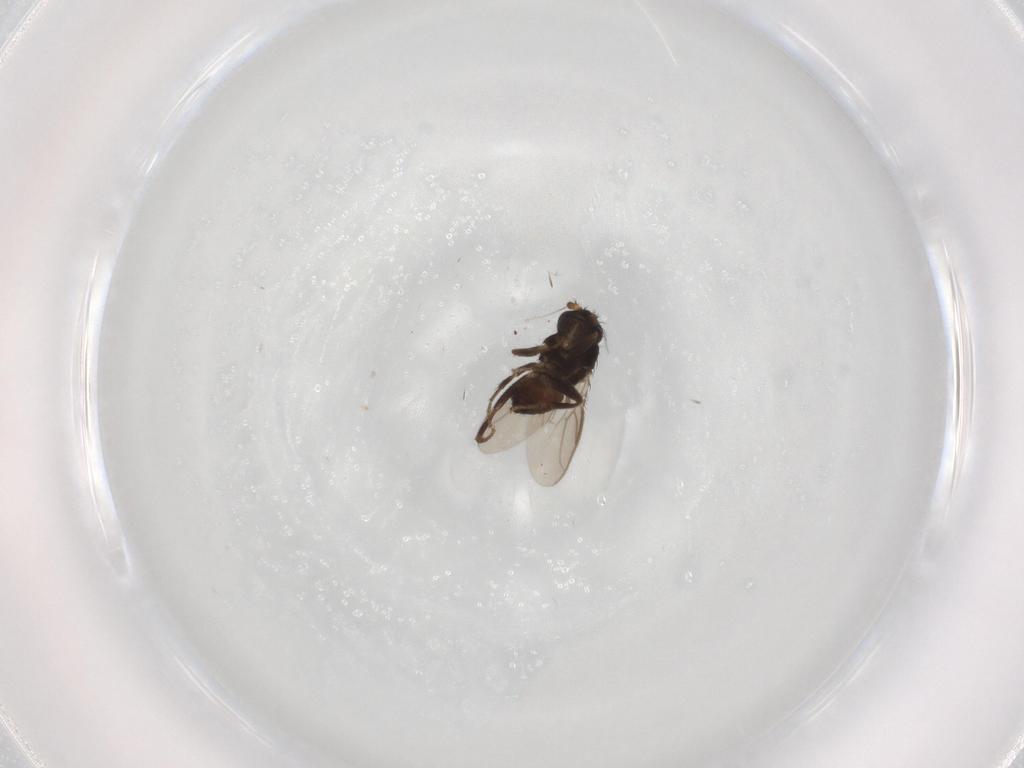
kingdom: Animalia
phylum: Arthropoda
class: Insecta
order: Diptera
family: Sphaeroceridae
